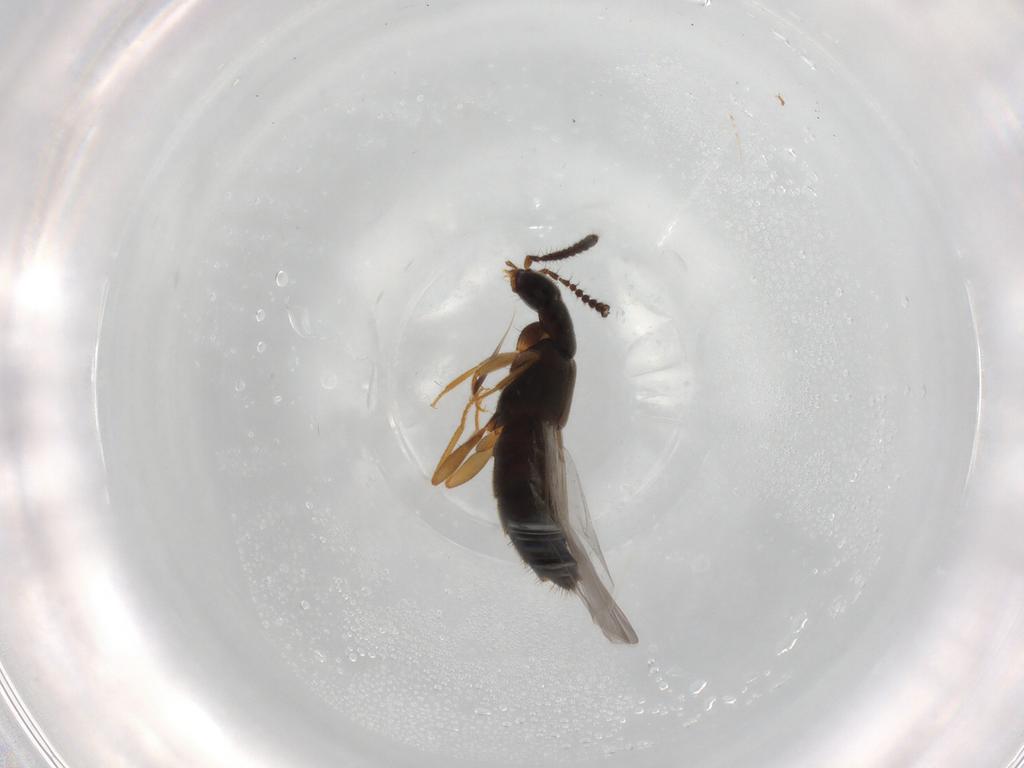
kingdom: Animalia
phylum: Arthropoda
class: Insecta
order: Coleoptera
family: Staphylinidae
